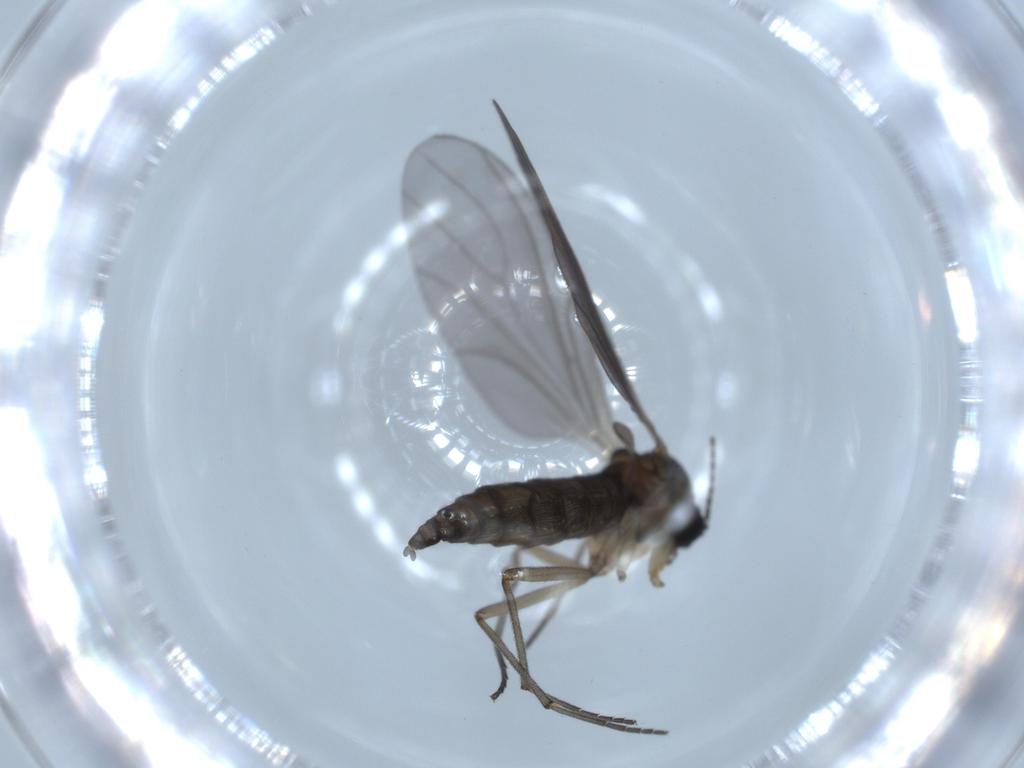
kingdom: Animalia
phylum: Arthropoda
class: Insecta
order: Diptera
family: Sciaridae
